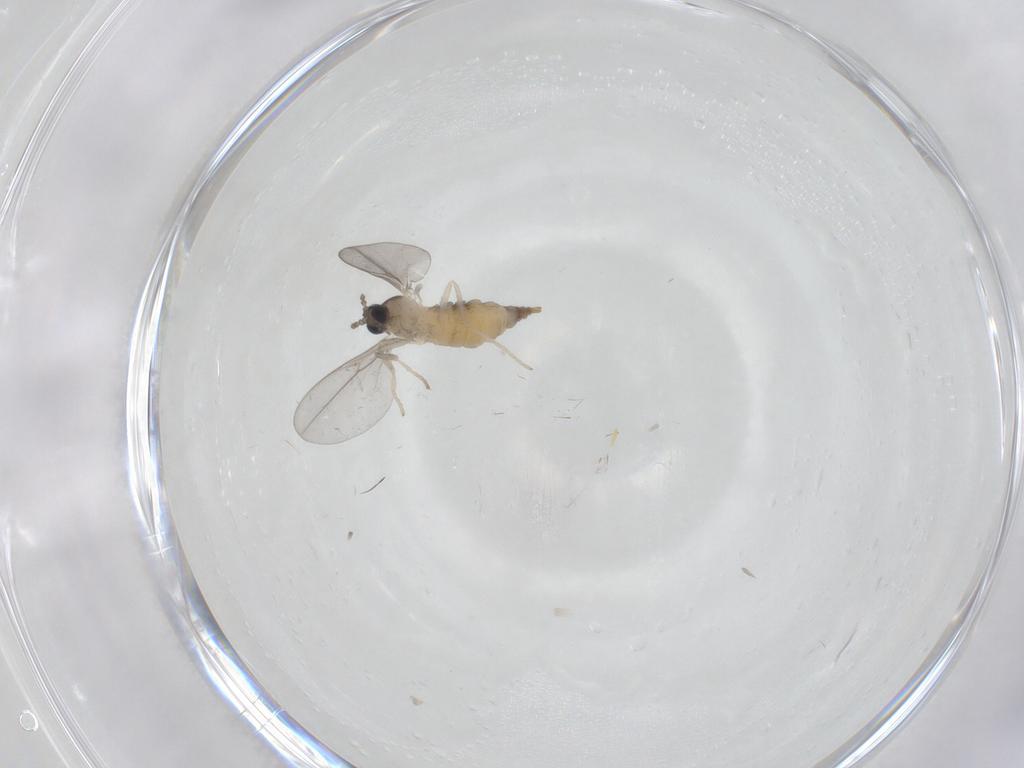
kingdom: Animalia
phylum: Arthropoda
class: Insecta
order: Diptera
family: Cecidomyiidae
